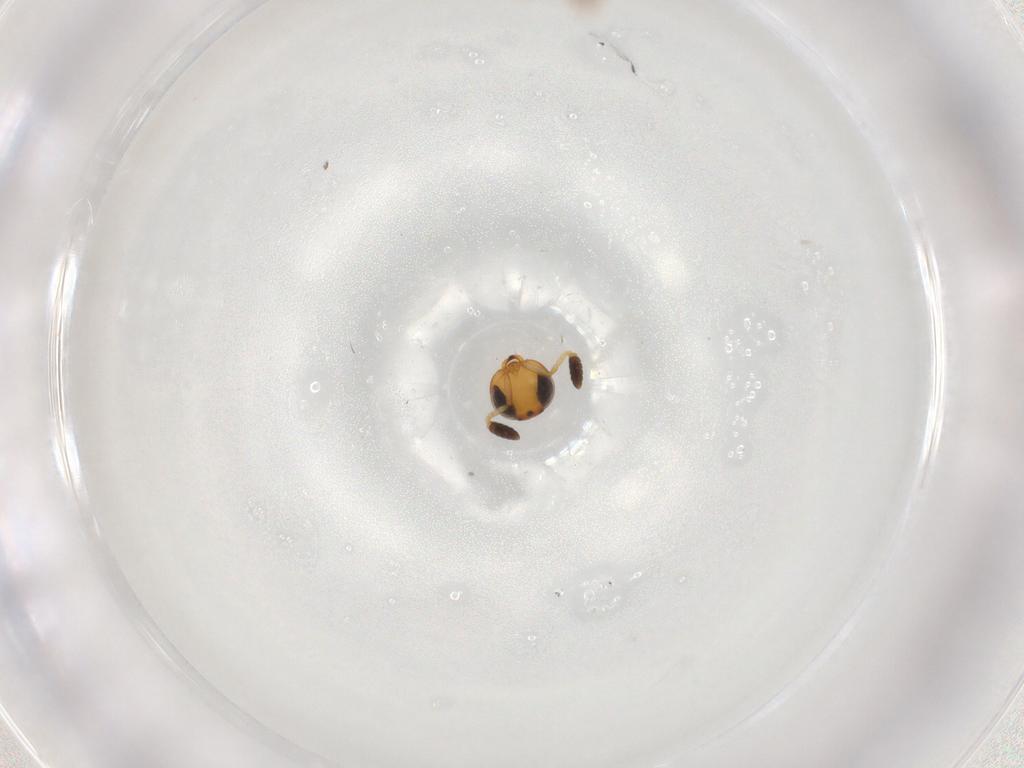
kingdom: Animalia
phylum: Arthropoda
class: Insecta
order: Hymenoptera
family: Scelionidae
